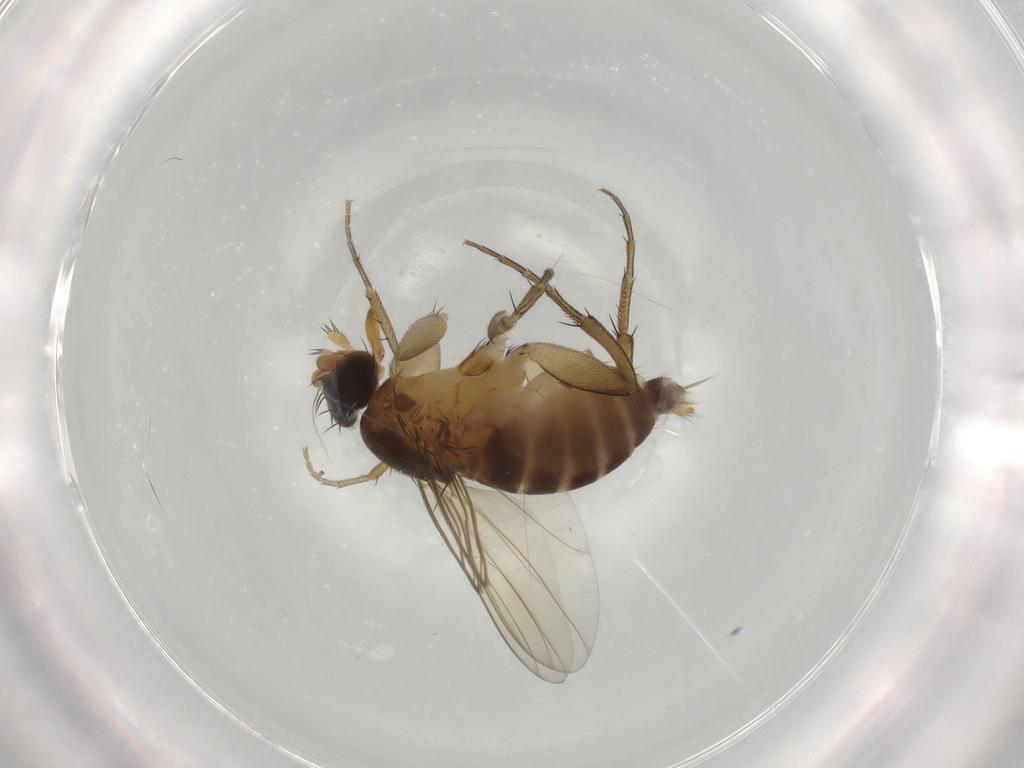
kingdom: Animalia
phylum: Arthropoda
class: Insecta
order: Diptera
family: Phoridae
